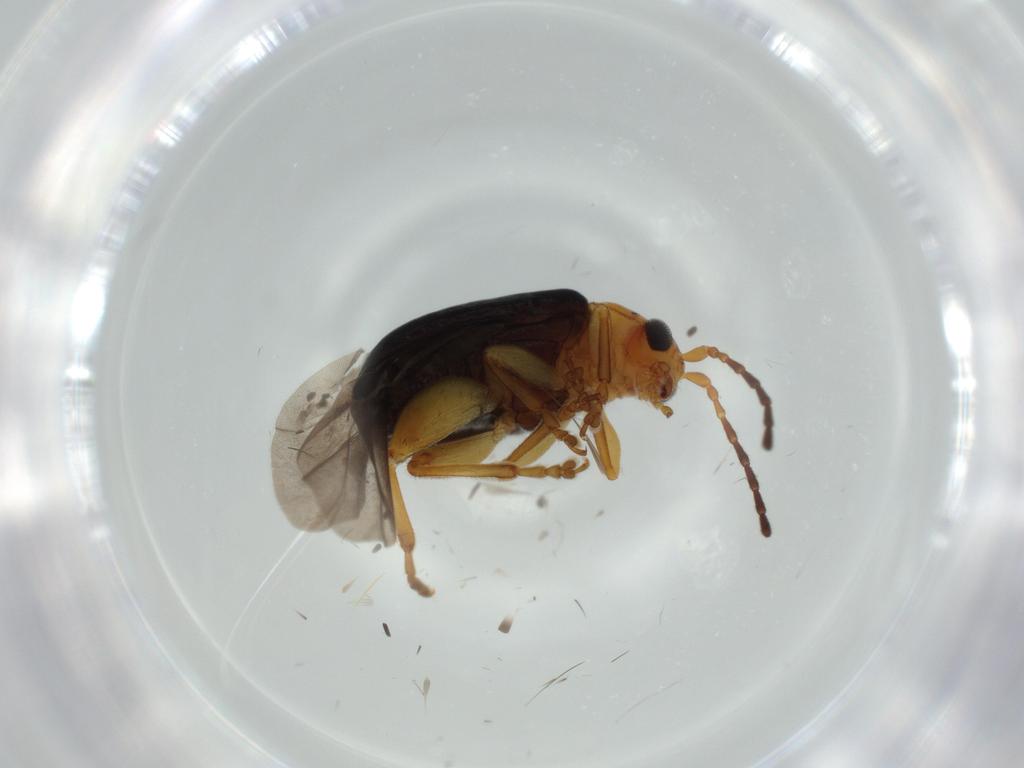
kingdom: Animalia
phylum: Arthropoda
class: Insecta
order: Coleoptera
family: Chrysomelidae
